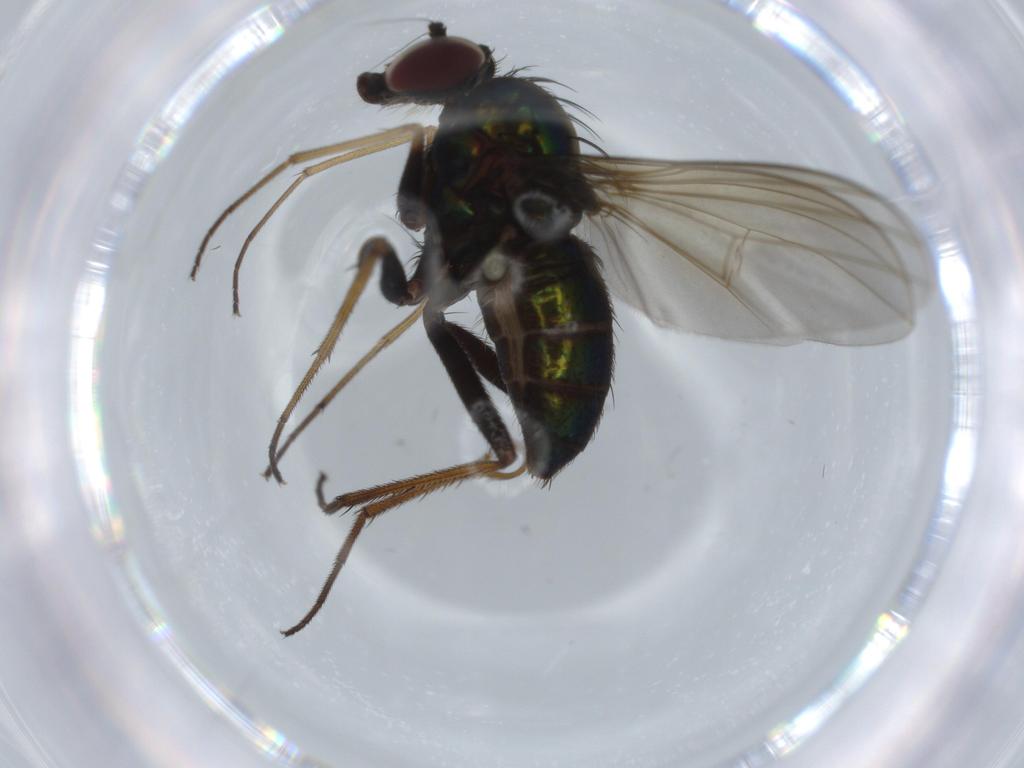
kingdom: Animalia
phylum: Arthropoda
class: Insecta
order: Diptera
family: Dolichopodidae
